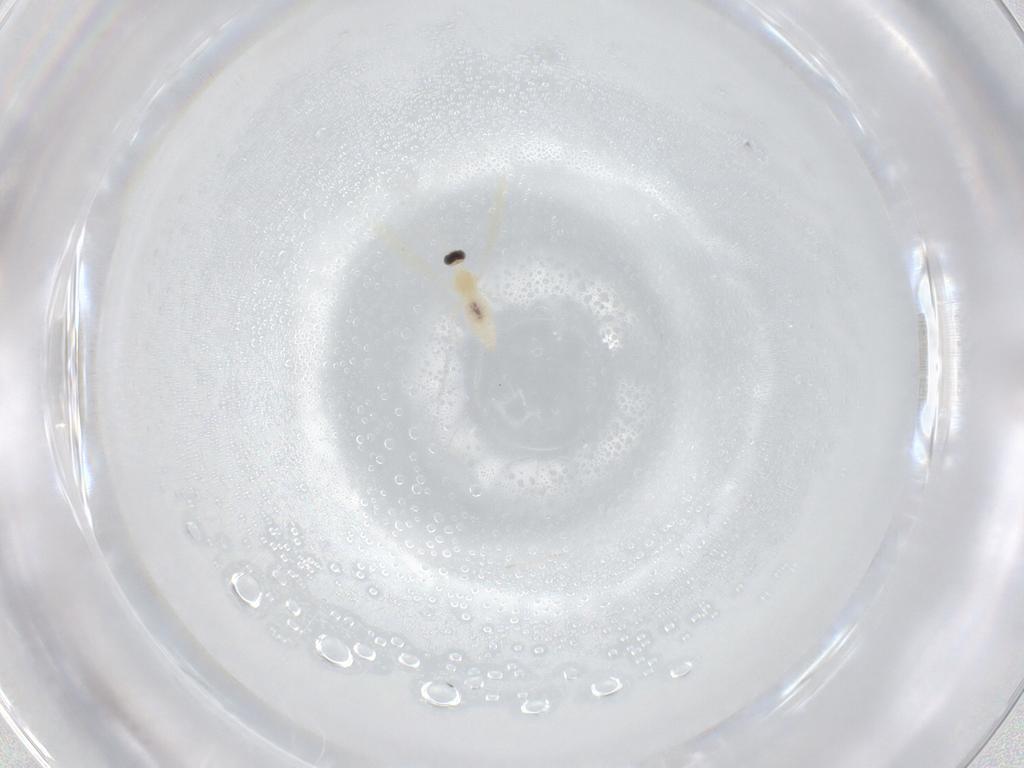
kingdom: Animalia
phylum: Arthropoda
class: Insecta
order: Diptera
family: Cecidomyiidae
